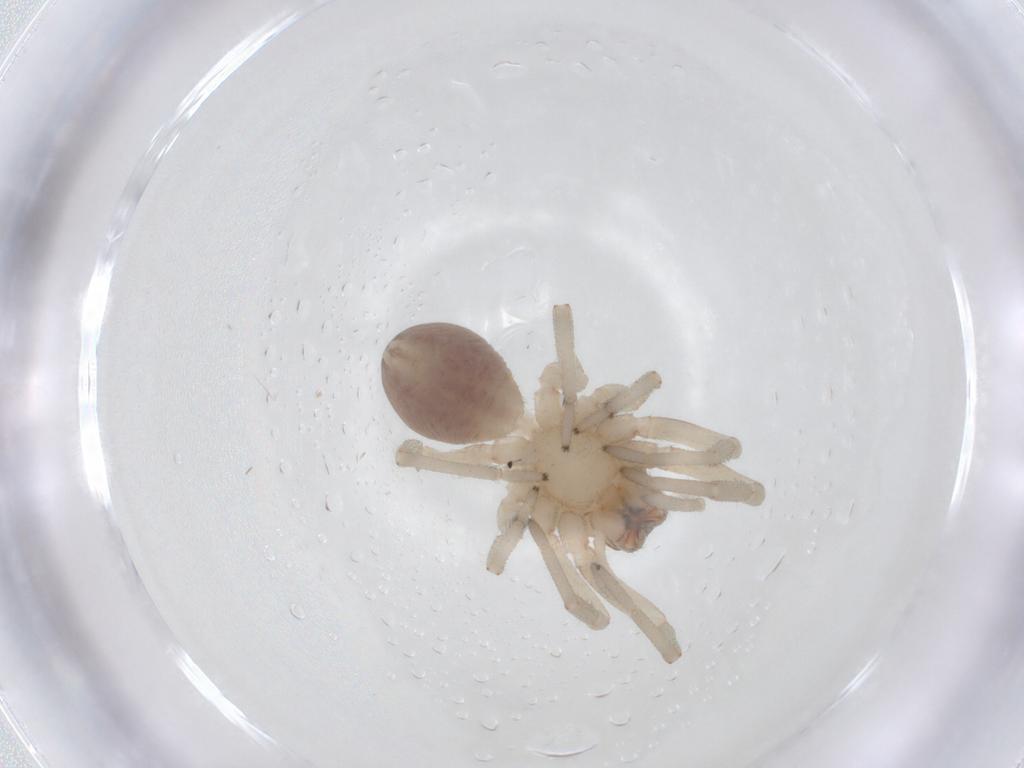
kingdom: Animalia
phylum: Arthropoda
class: Arachnida
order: Araneae
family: Trachelidae
